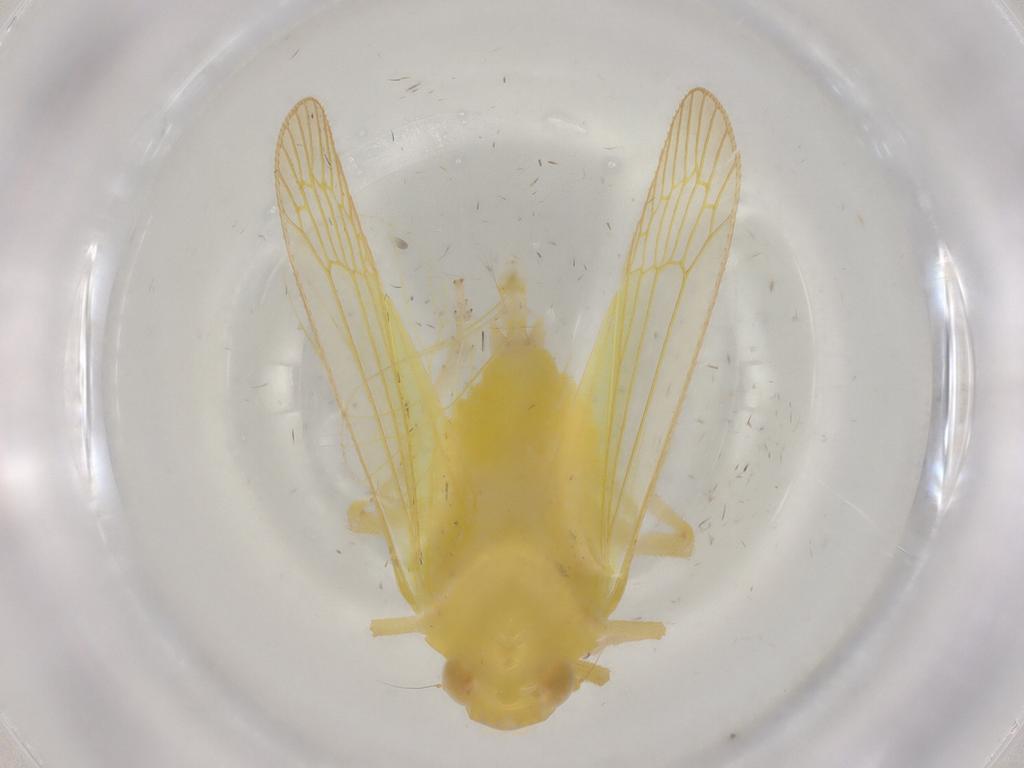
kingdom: Animalia
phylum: Arthropoda
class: Insecta
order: Hemiptera
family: Tropiduchidae
